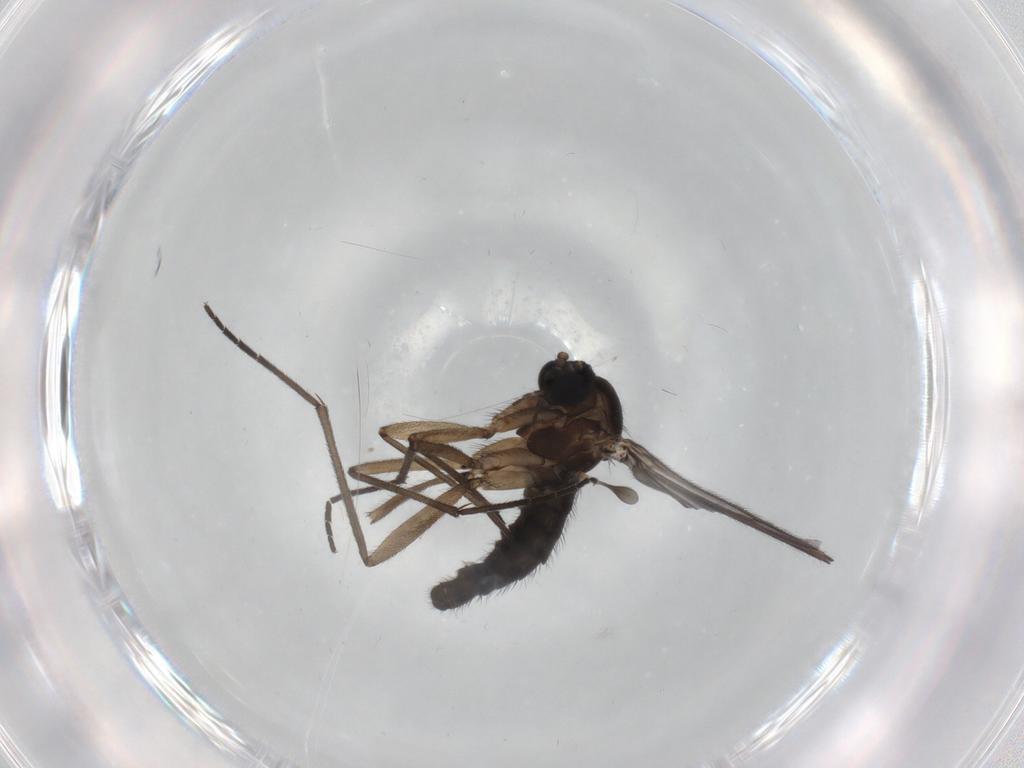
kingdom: Animalia
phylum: Arthropoda
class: Insecta
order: Diptera
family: Sciaridae
